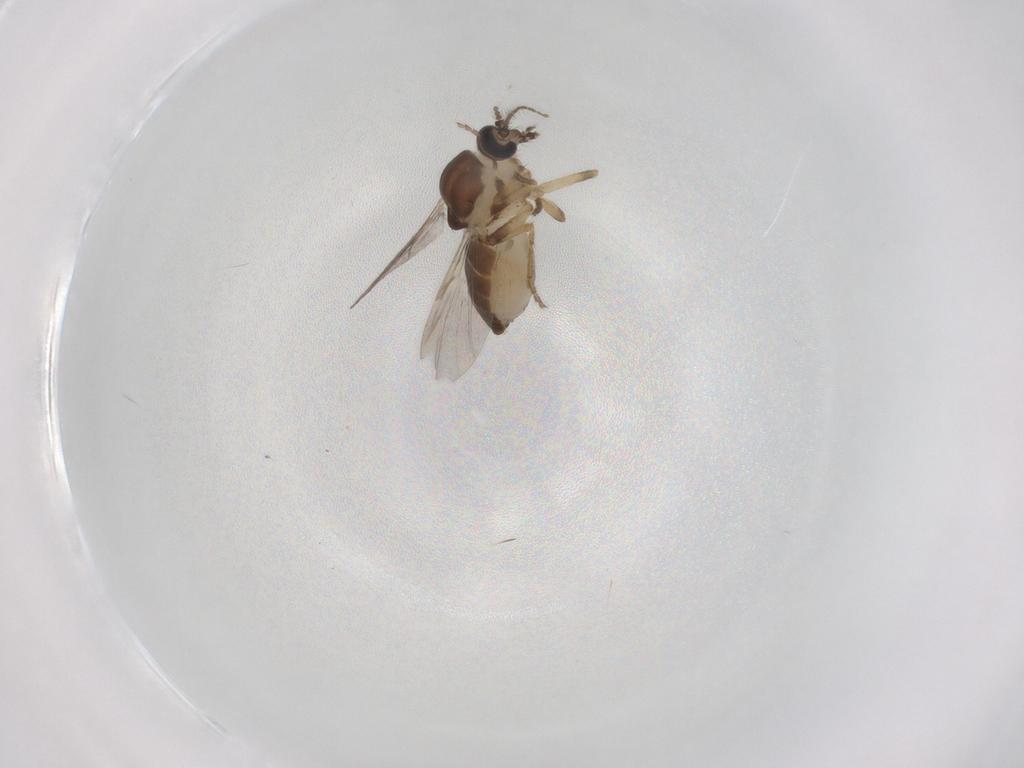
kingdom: Animalia
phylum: Arthropoda
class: Insecta
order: Diptera
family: Ceratopogonidae
